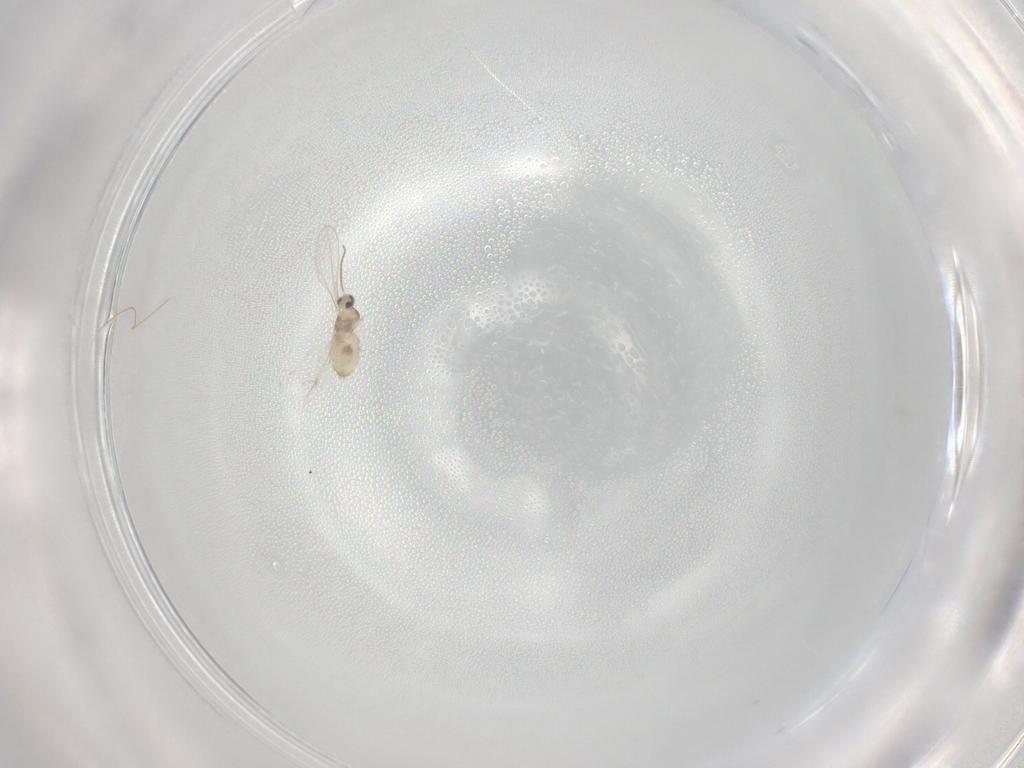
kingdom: Animalia
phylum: Arthropoda
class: Insecta
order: Diptera
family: Cecidomyiidae
